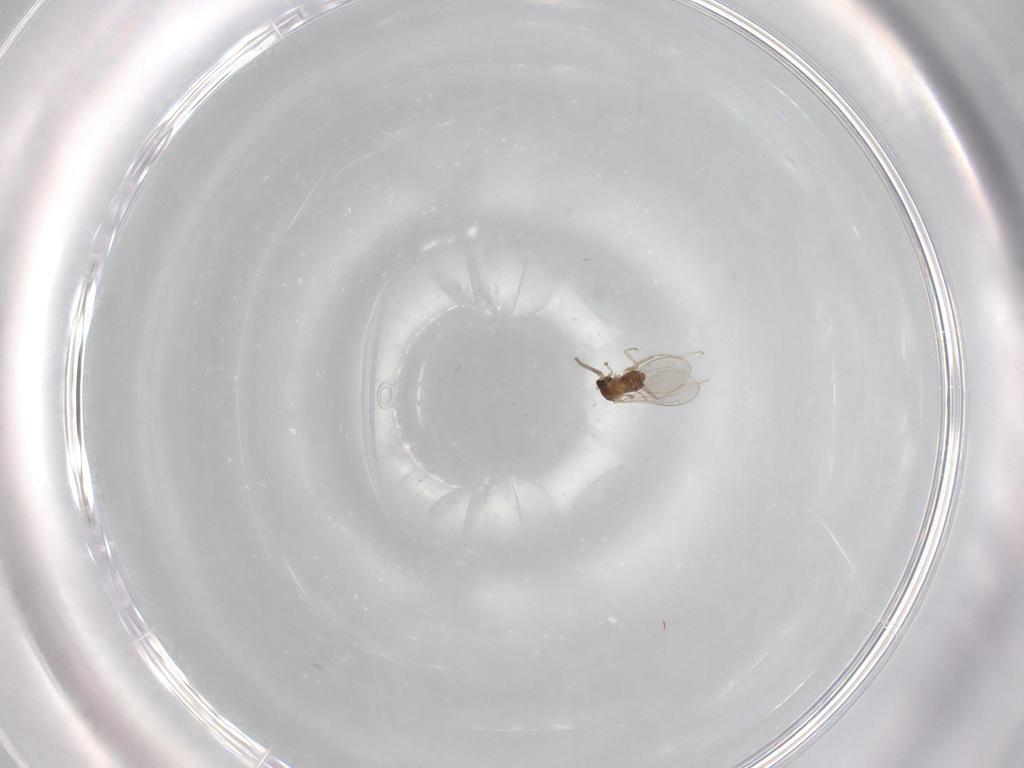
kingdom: Animalia
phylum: Arthropoda
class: Insecta
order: Diptera
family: Cecidomyiidae
